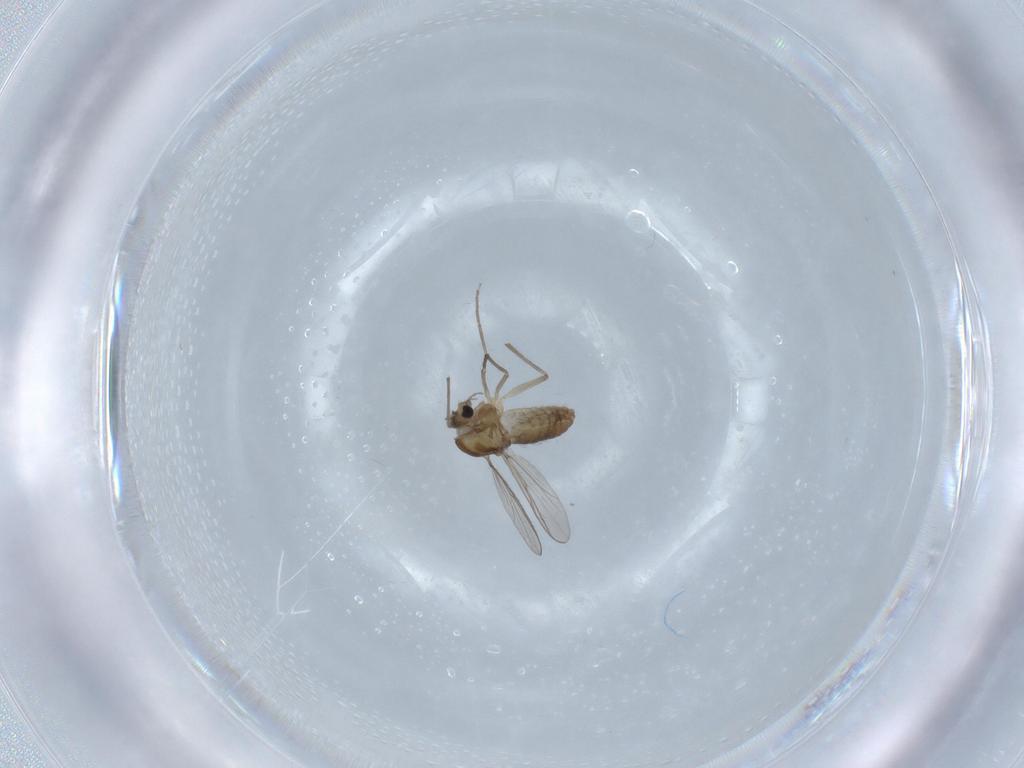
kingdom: Animalia
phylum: Arthropoda
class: Insecta
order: Diptera
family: Chironomidae
